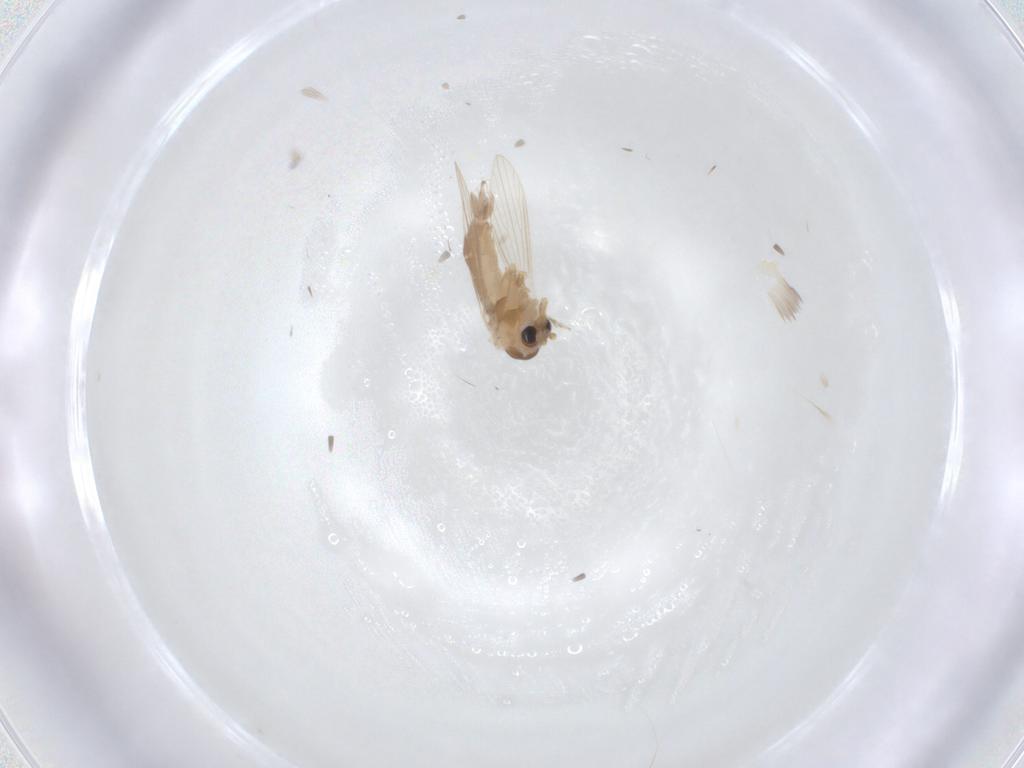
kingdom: Animalia
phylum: Arthropoda
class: Insecta
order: Diptera
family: Psychodidae
